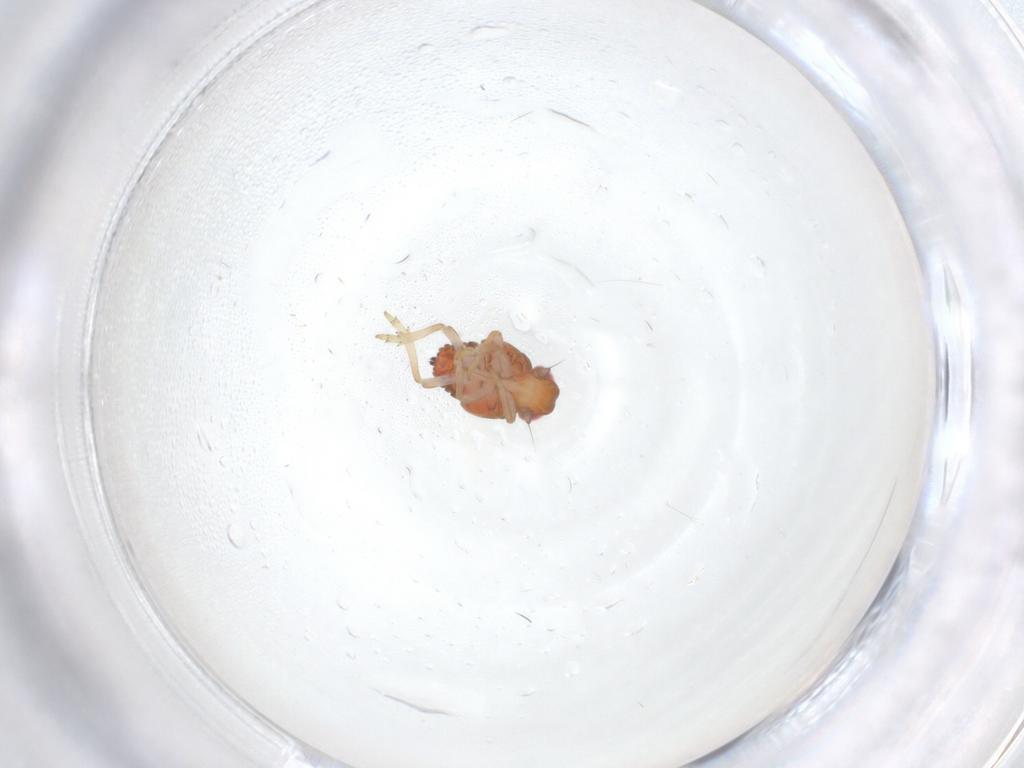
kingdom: Animalia
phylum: Arthropoda
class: Insecta
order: Hemiptera
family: Issidae
